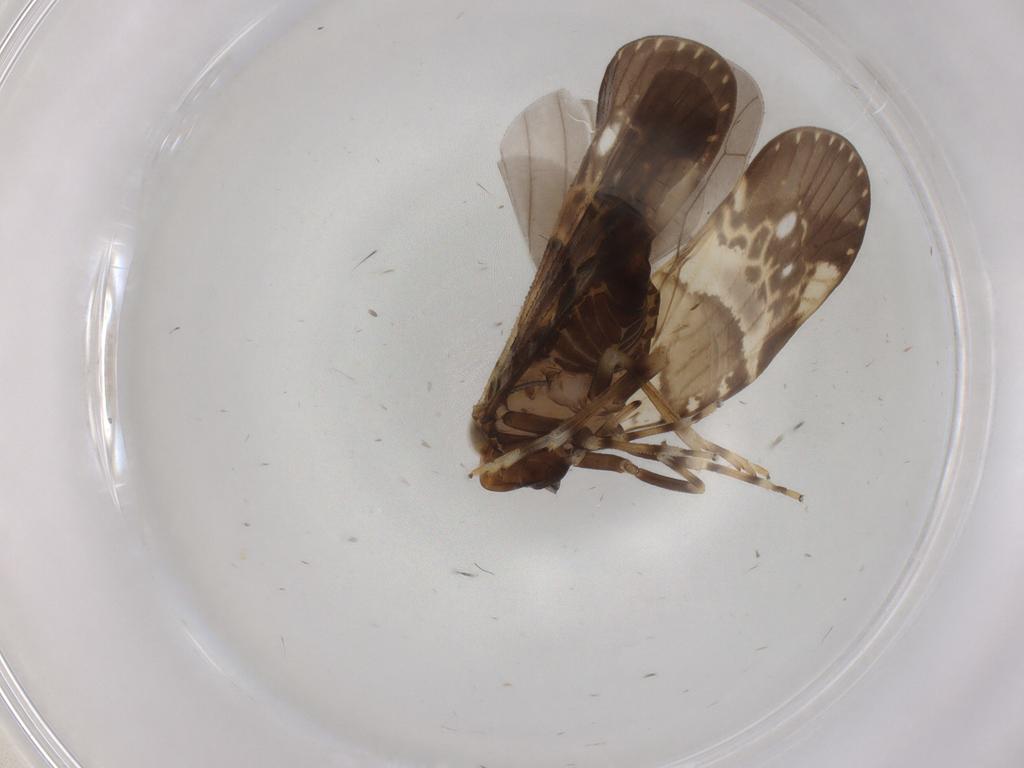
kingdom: Animalia
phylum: Arthropoda
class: Insecta
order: Hemiptera
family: Cixiidae
